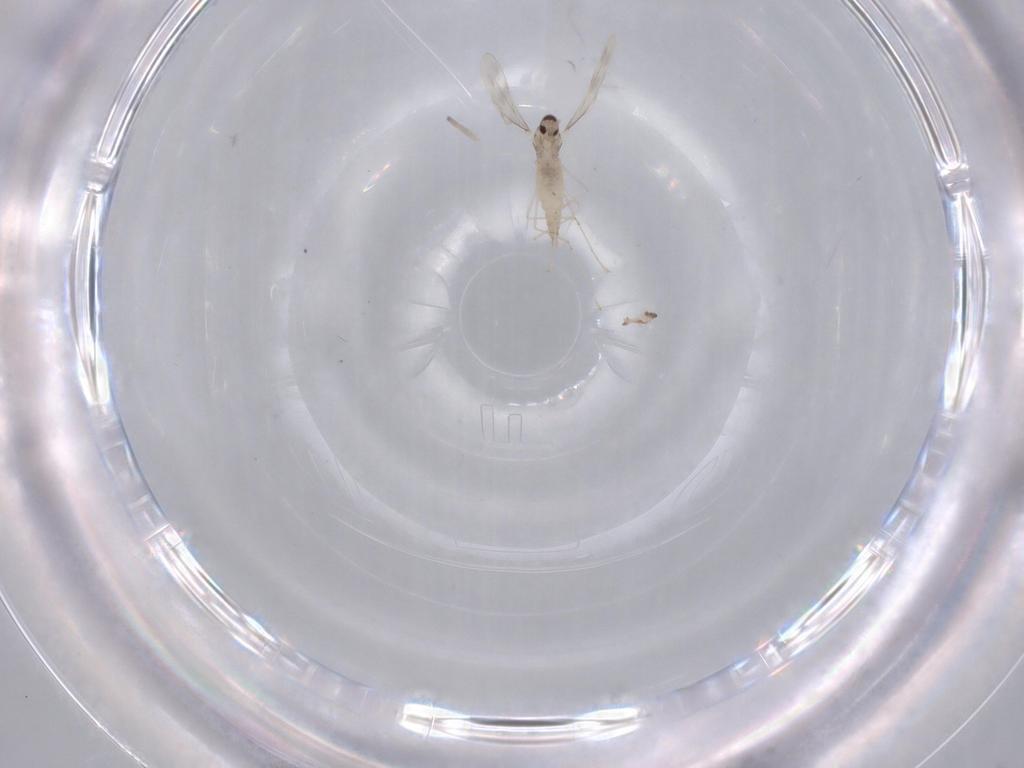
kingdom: Animalia
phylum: Arthropoda
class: Insecta
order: Diptera
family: Chironomidae
